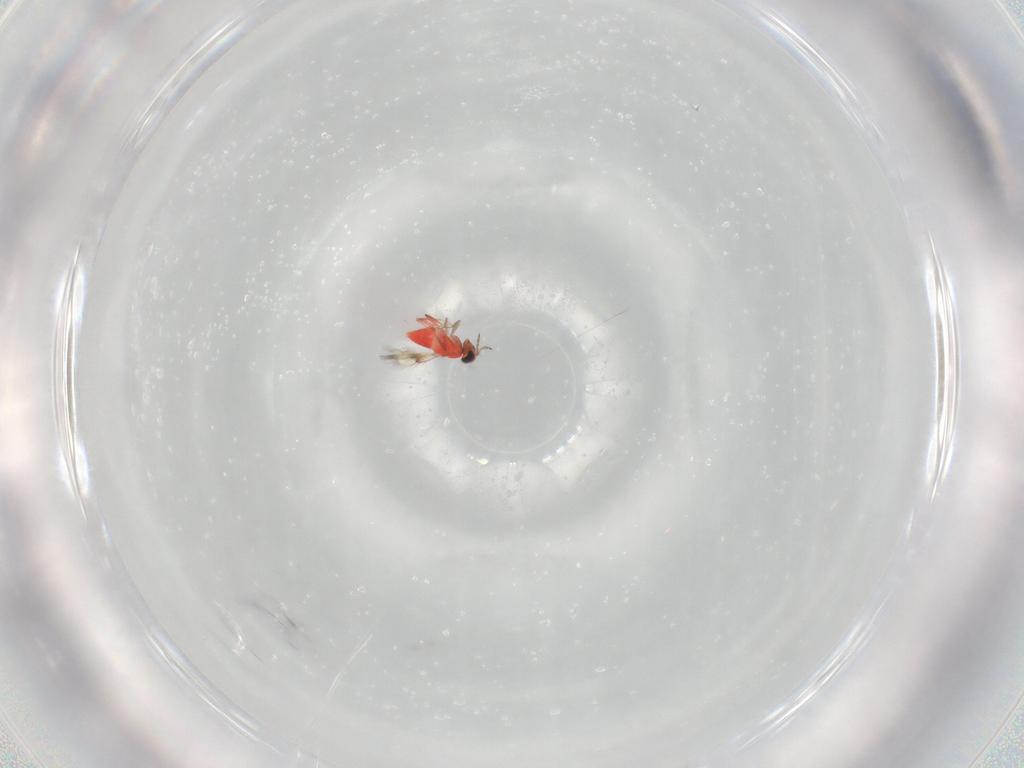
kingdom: Animalia
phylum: Arthropoda
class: Insecta
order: Hymenoptera
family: Trichogrammatidae
